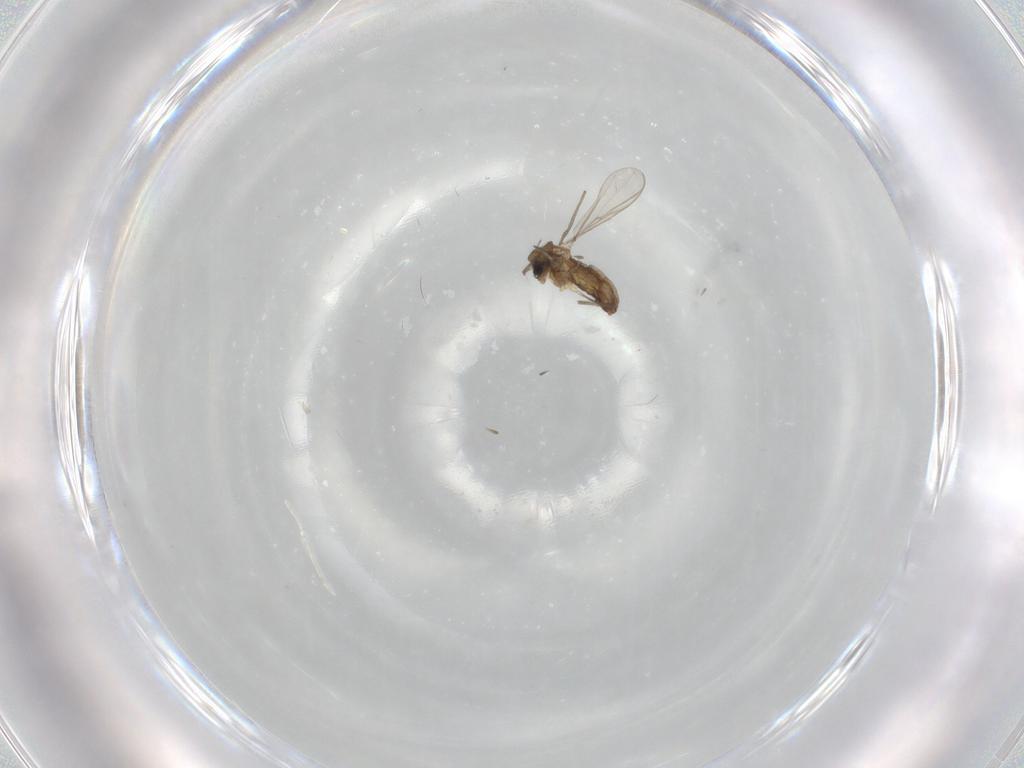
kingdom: Animalia
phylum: Arthropoda
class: Insecta
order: Diptera
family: Chironomidae
